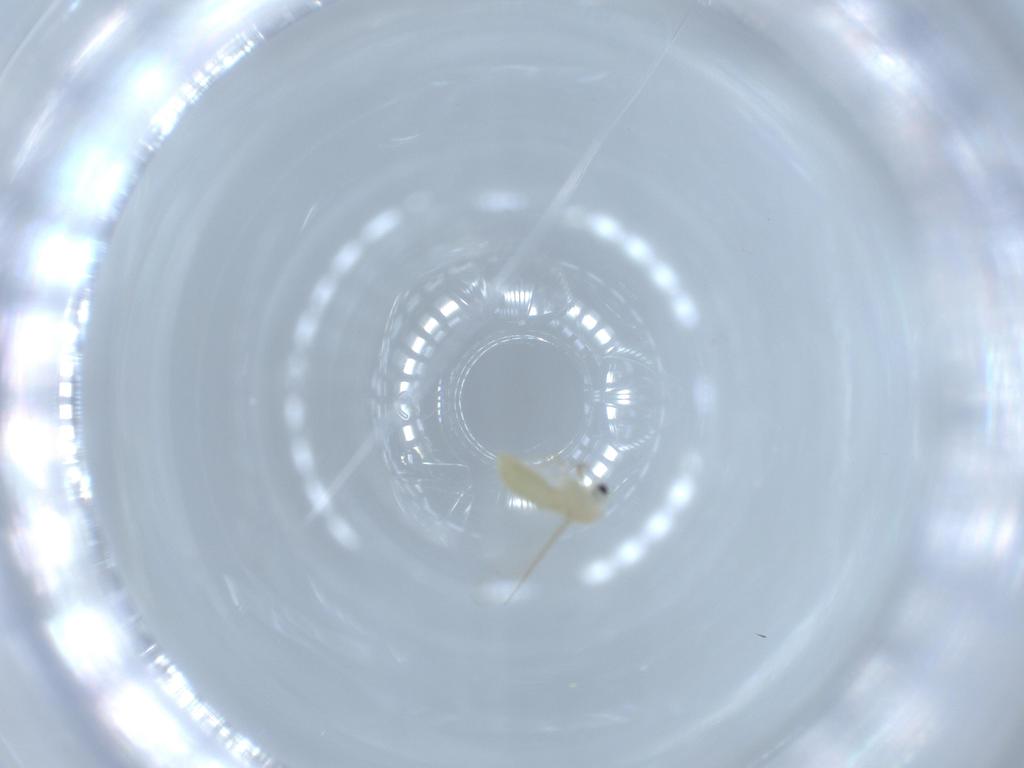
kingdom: Animalia
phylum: Arthropoda
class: Insecta
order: Diptera
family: Chironomidae
